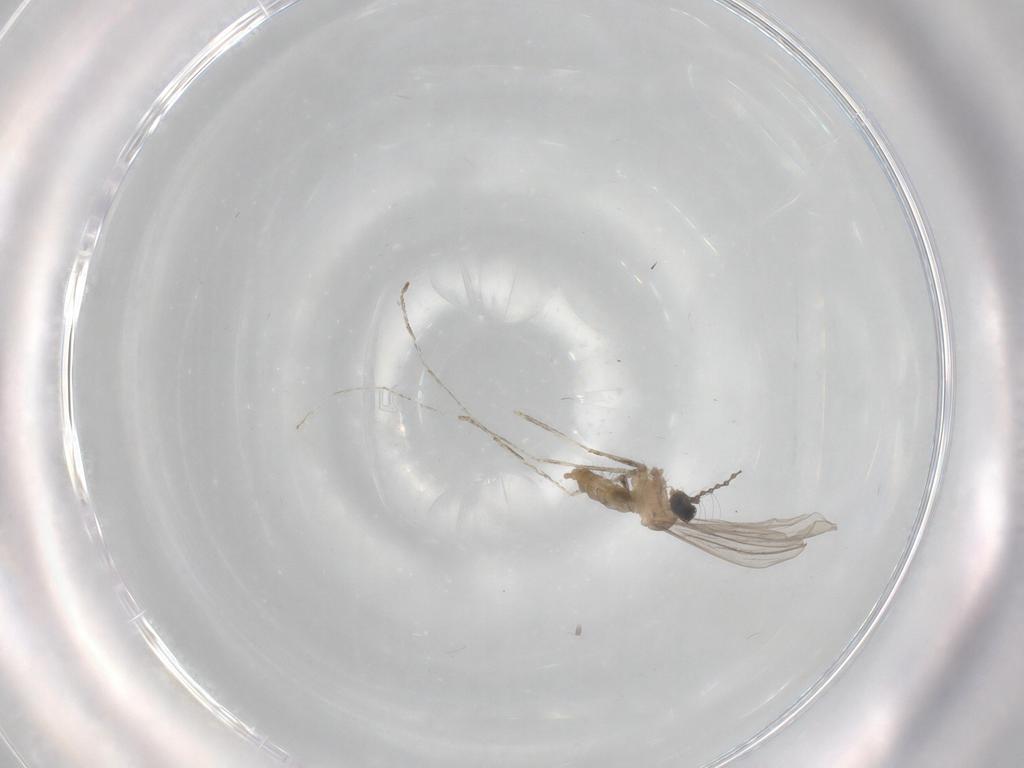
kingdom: Animalia
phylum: Arthropoda
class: Insecta
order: Diptera
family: Cecidomyiidae
